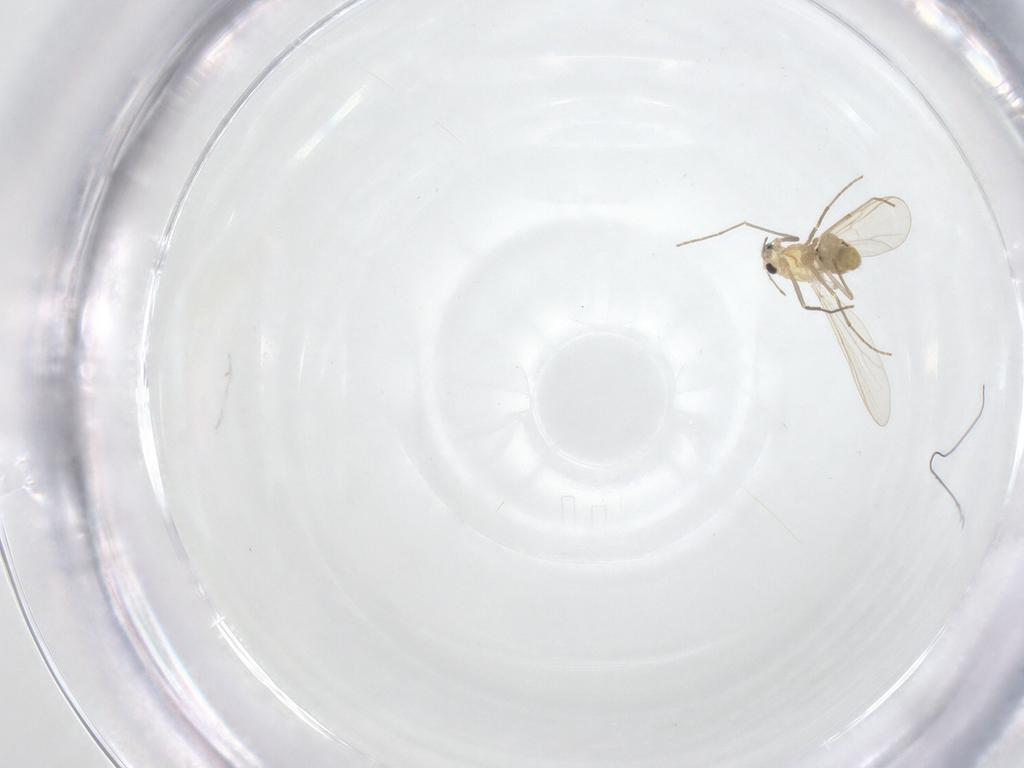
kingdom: Animalia
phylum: Arthropoda
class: Insecta
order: Diptera
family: Chironomidae
